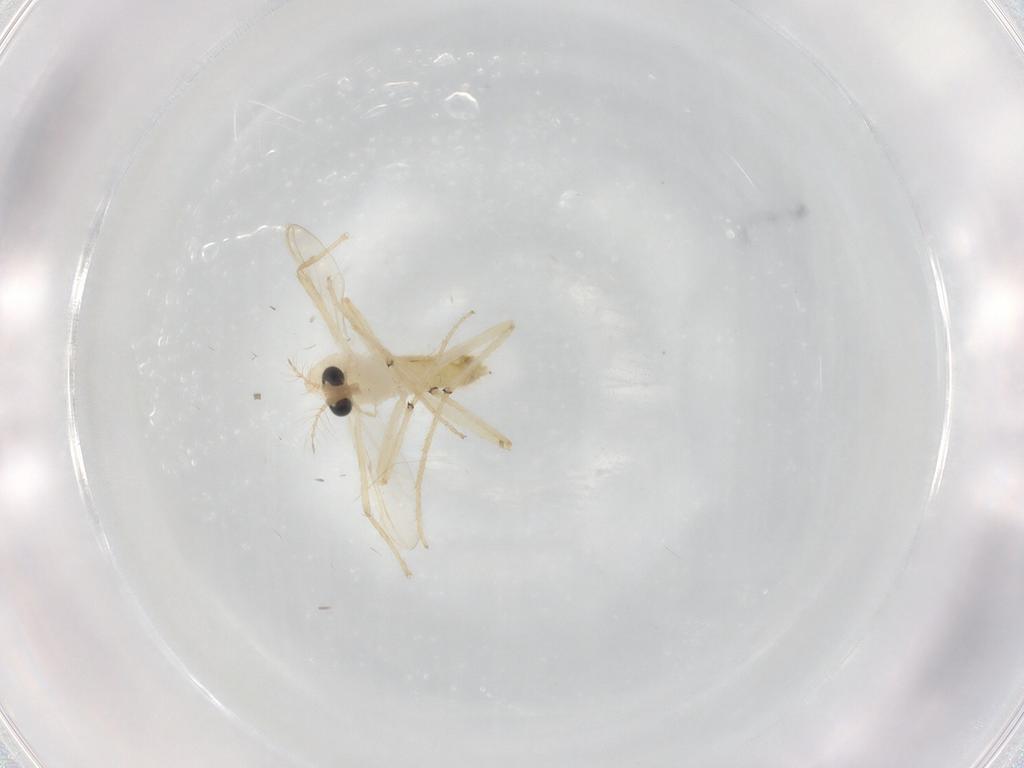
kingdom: Animalia
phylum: Arthropoda
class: Insecta
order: Diptera
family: Chironomidae
